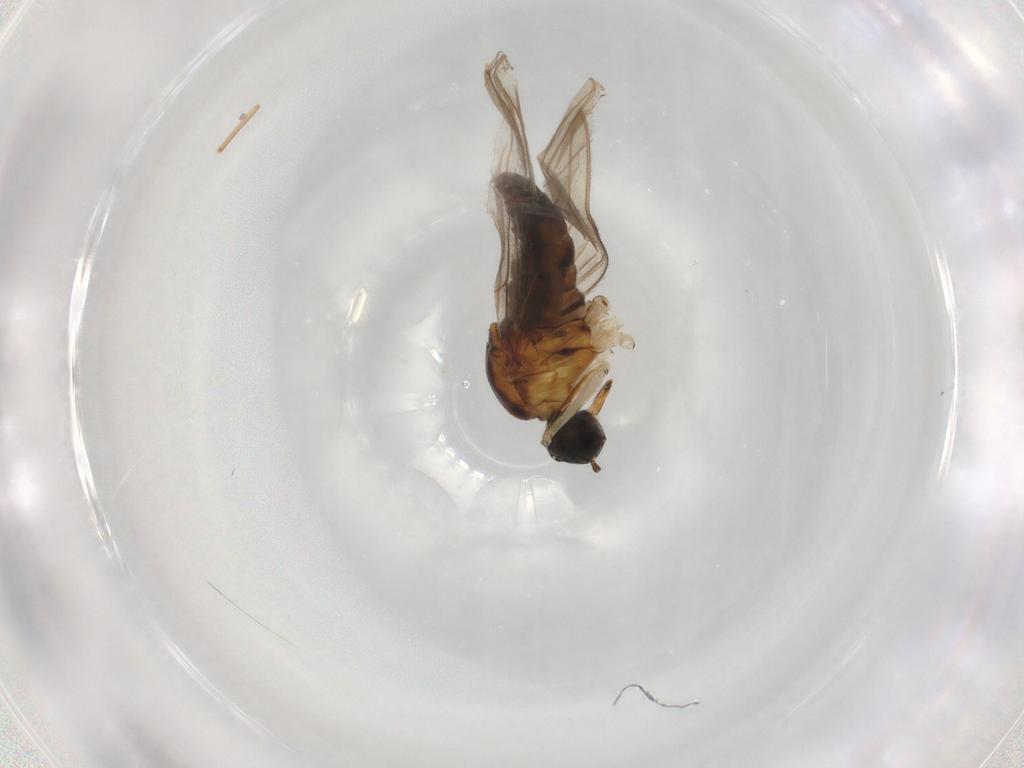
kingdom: Animalia
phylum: Arthropoda
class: Insecta
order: Diptera
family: Hybotidae
